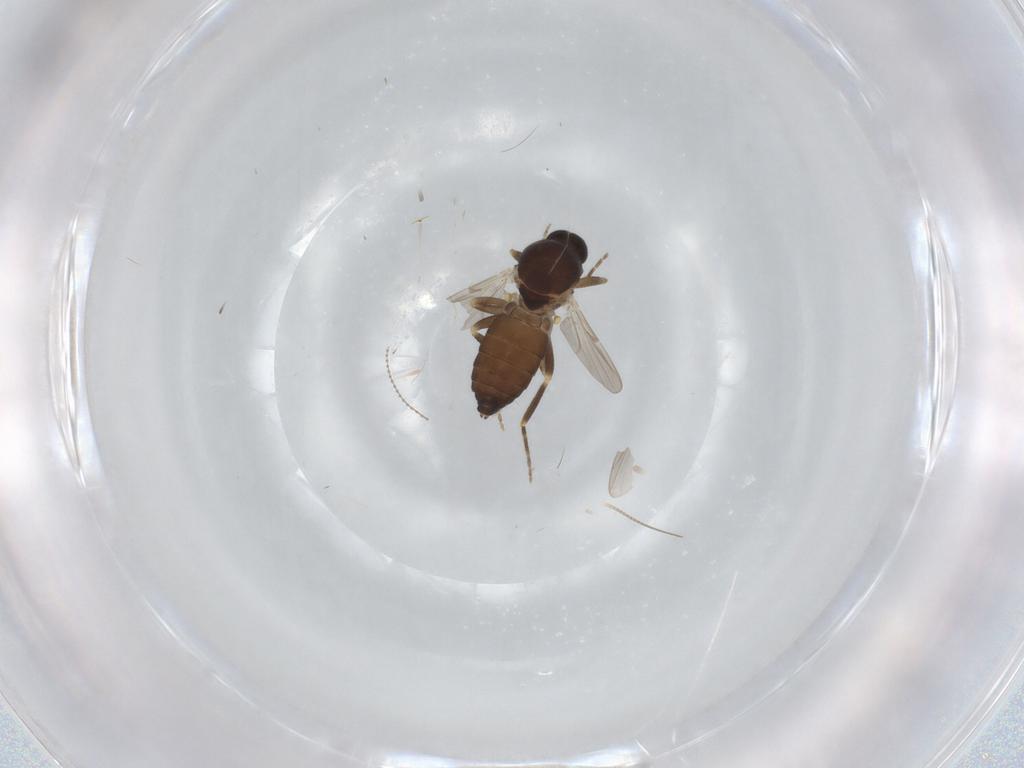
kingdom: Animalia
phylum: Arthropoda
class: Insecta
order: Diptera
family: Ceratopogonidae
